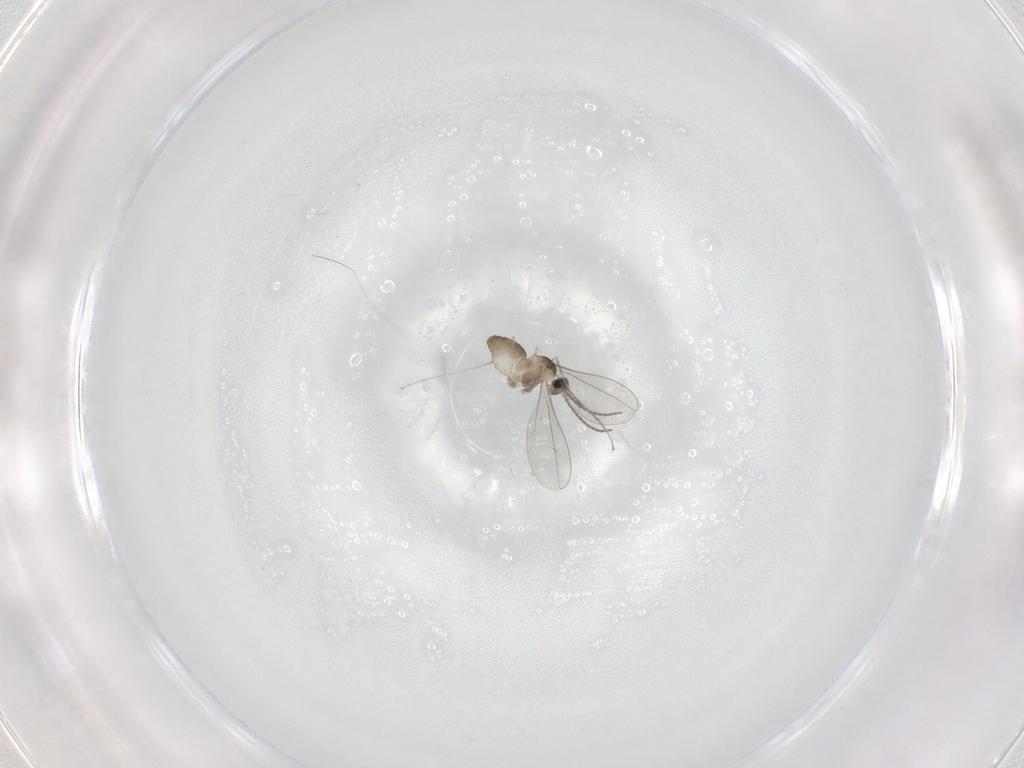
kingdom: Animalia
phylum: Arthropoda
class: Insecta
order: Diptera
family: Cecidomyiidae
